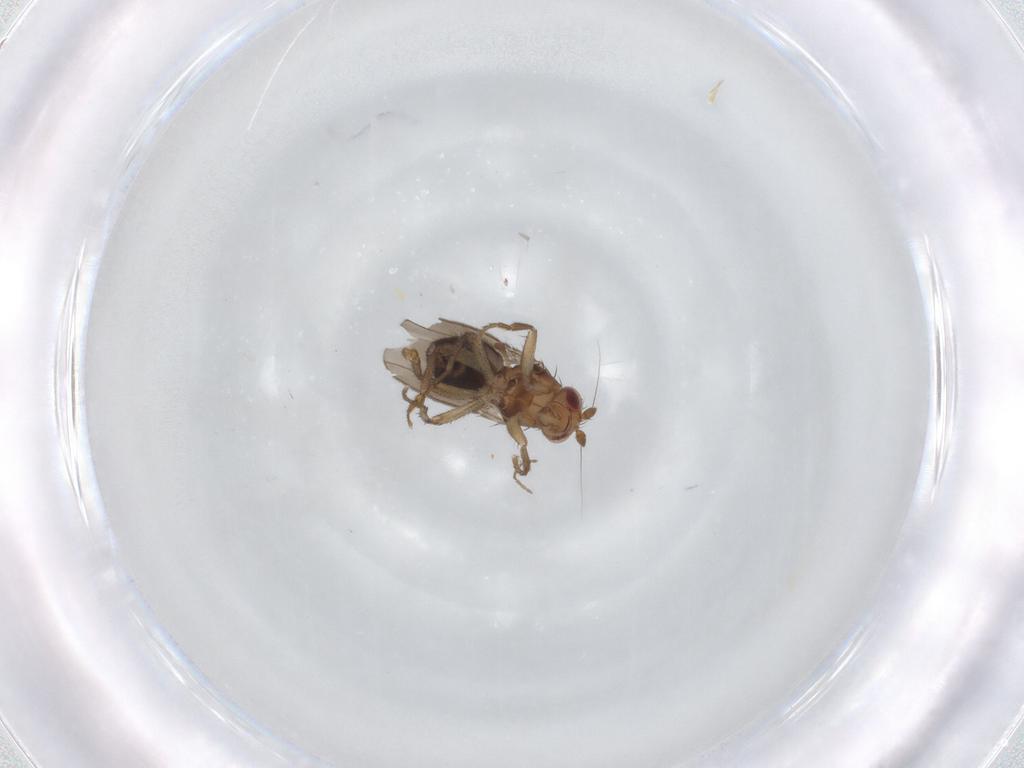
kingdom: Animalia
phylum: Arthropoda
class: Insecta
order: Diptera
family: Sphaeroceridae
